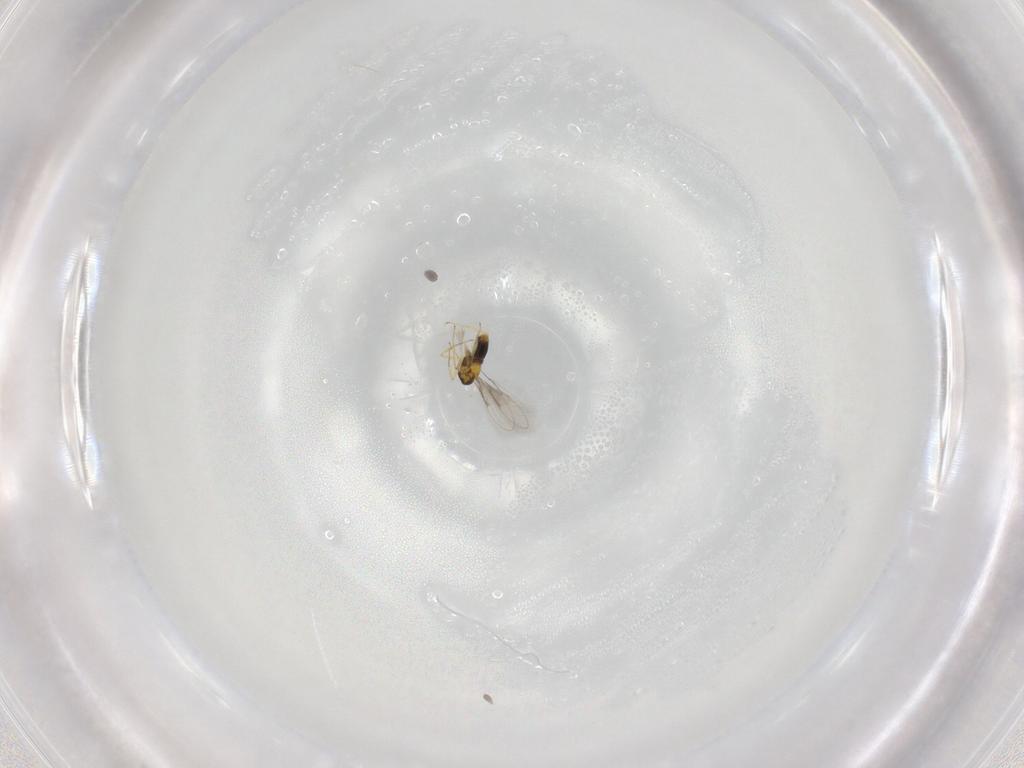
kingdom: Animalia
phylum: Arthropoda
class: Insecta
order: Hymenoptera
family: Aphelinidae
